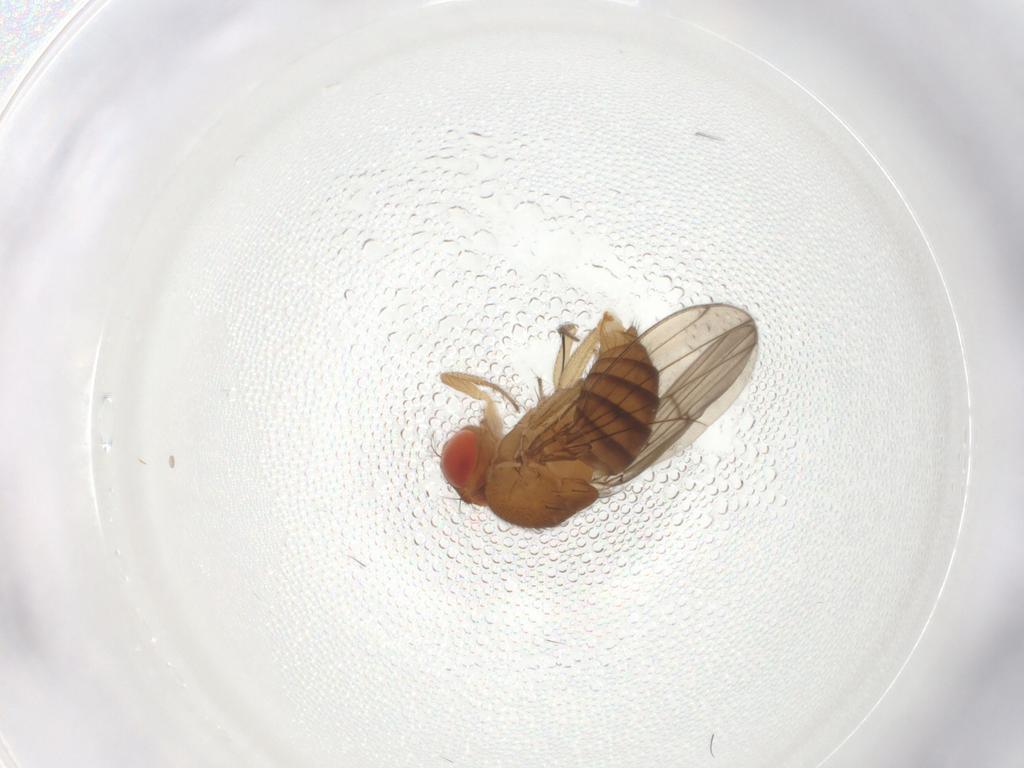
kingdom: Animalia
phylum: Arthropoda
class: Insecta
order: Diptera
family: Drosophilidae
